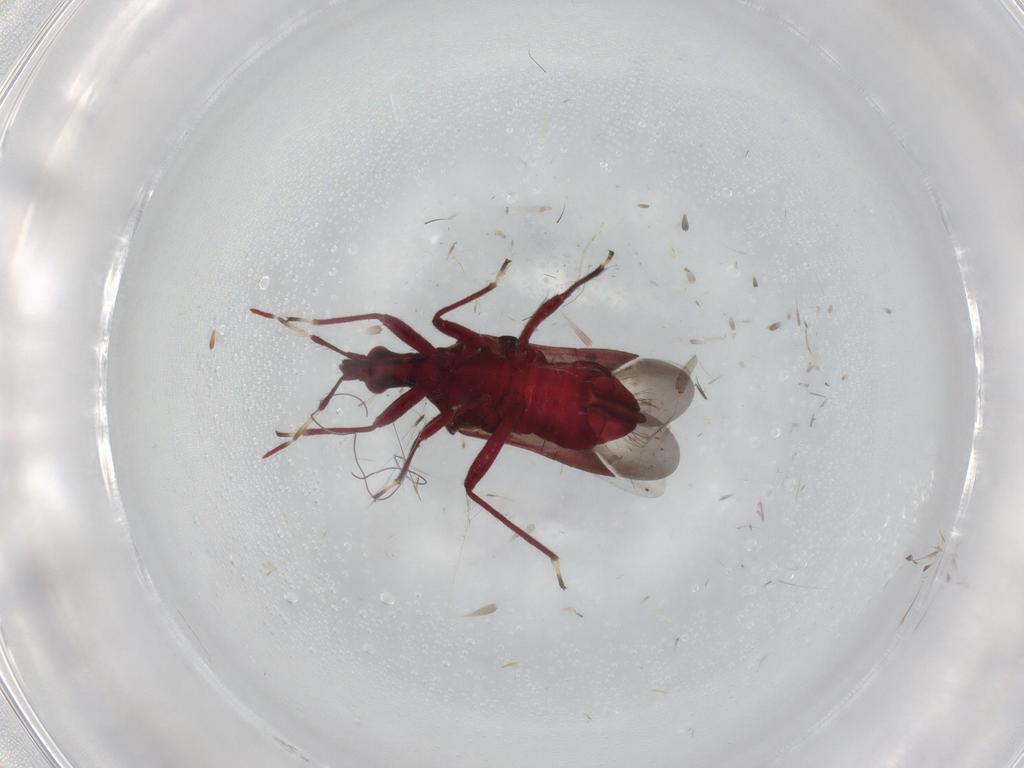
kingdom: Animalia
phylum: Arthropoda
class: Insecta
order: Hemiptera
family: Anthocoridae
